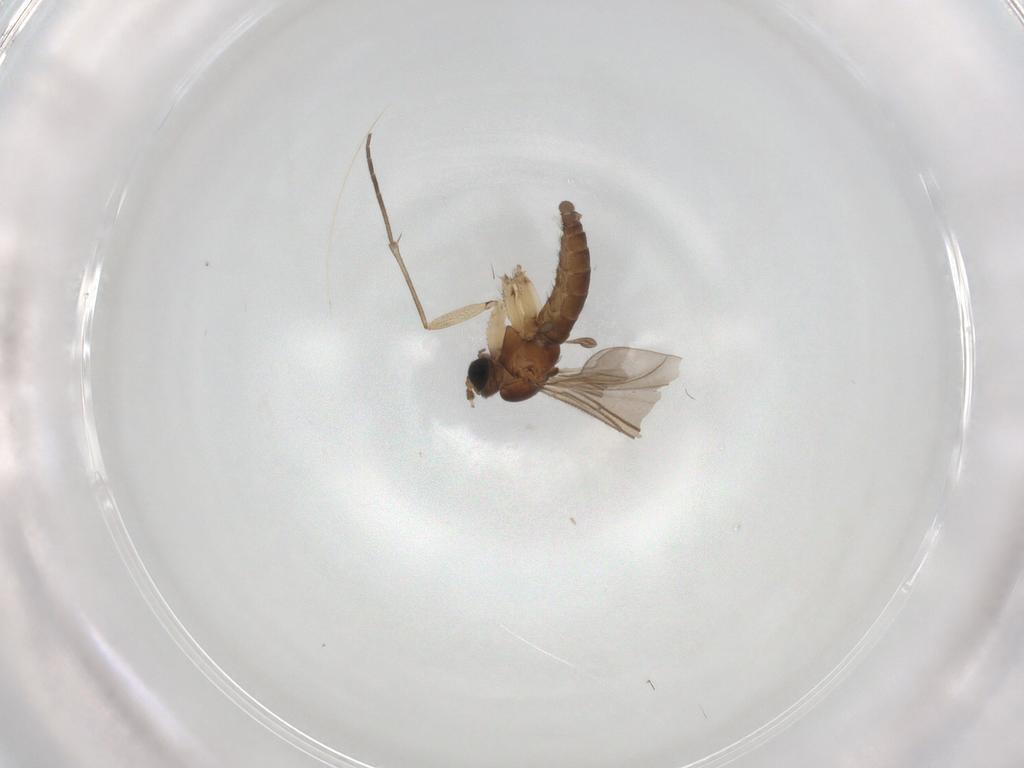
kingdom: Animalia
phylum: Arthropoda
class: Insecta
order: Diptera
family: Sciaridae
